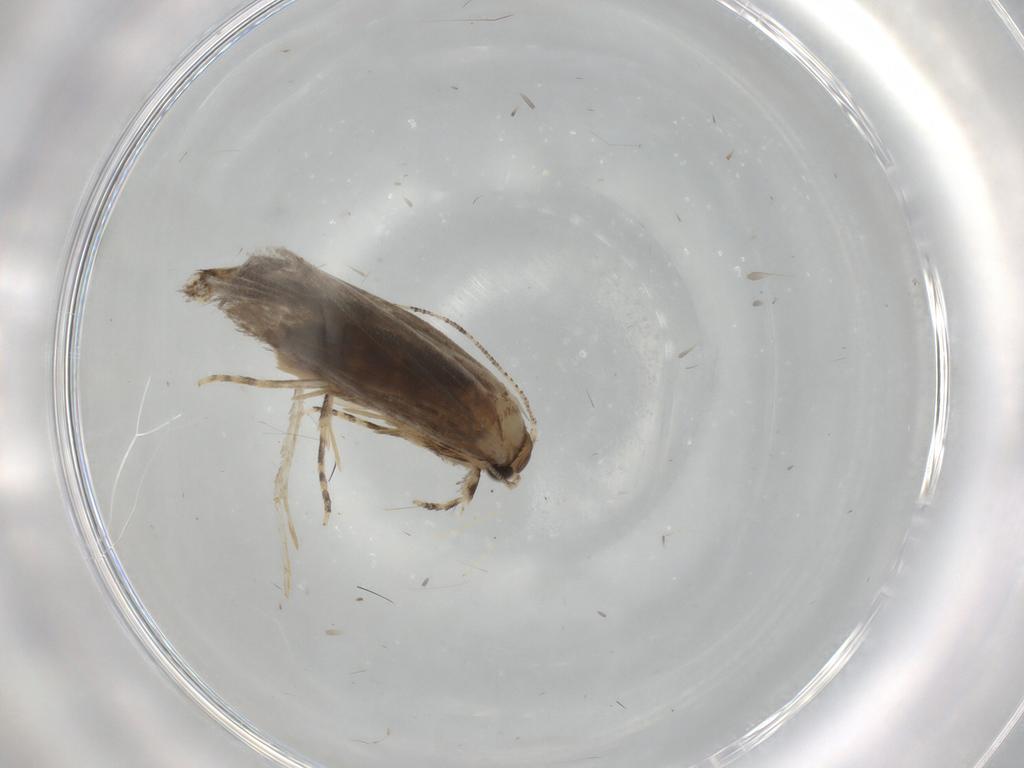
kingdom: Animalia
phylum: Arthropoda
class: Insecta
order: Lepidoptera
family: Tineidae
